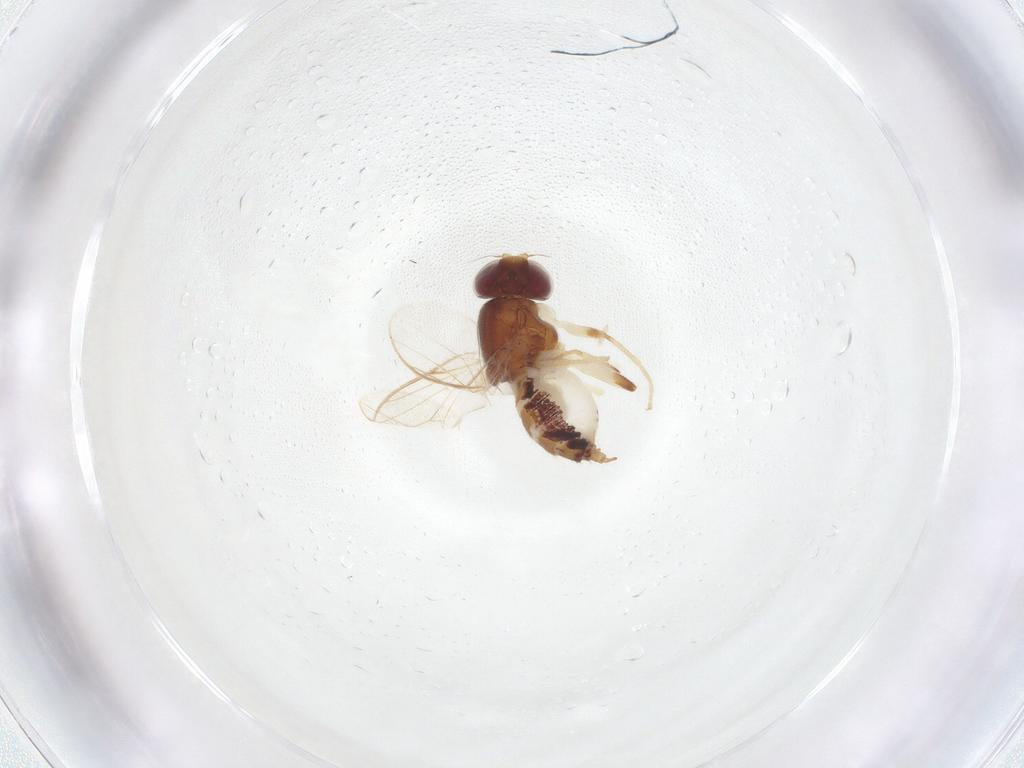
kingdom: Animalia
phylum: Arthropoda
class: Insecta
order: Diptera
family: Chloropidae
